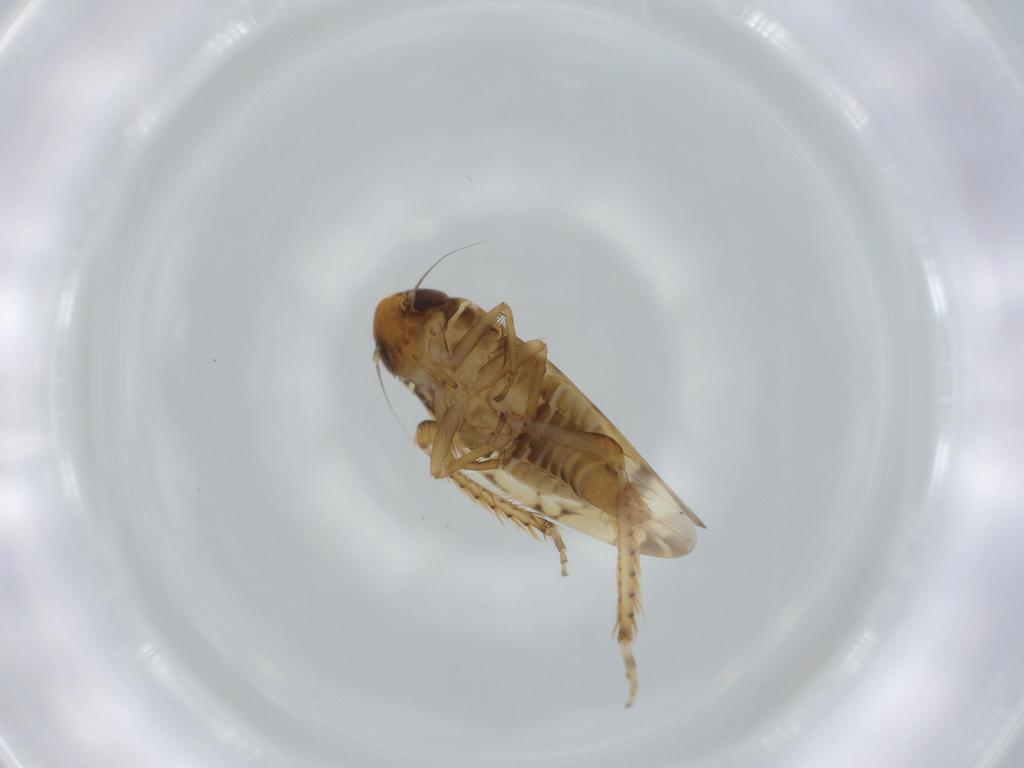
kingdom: Animalia
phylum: Arthropoda
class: Insecta
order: Hemiptera
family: Cicadellidae
